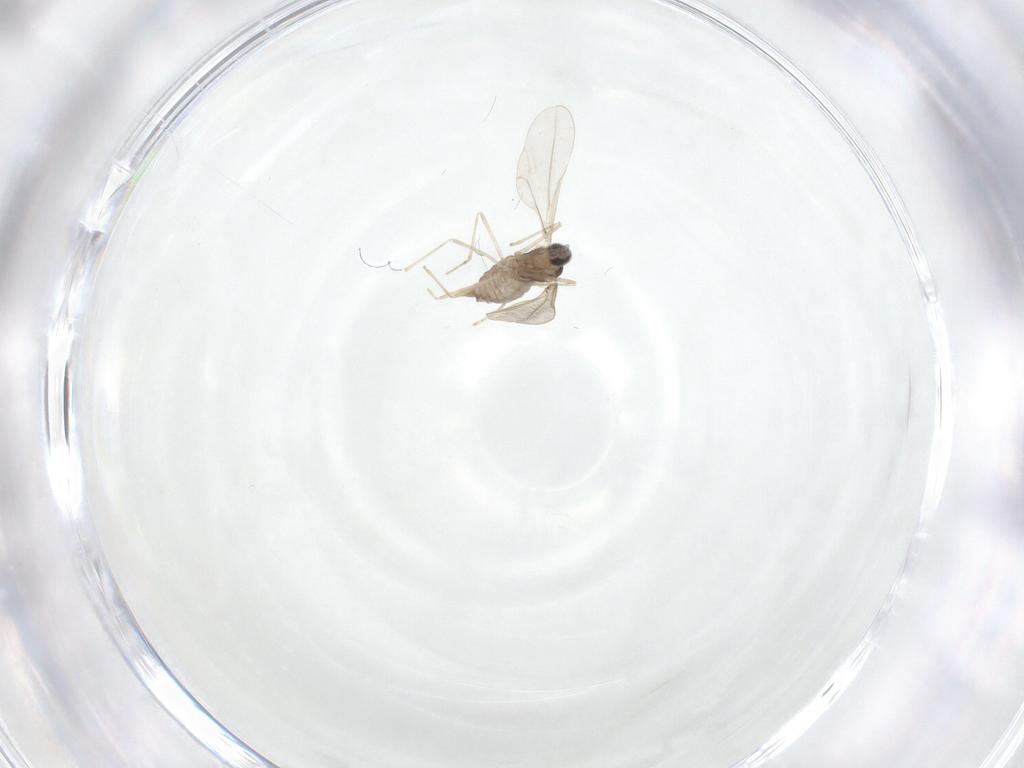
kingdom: Animalia
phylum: Arthropoda
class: Insecta
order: Diptera
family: Cecidomyiidae
